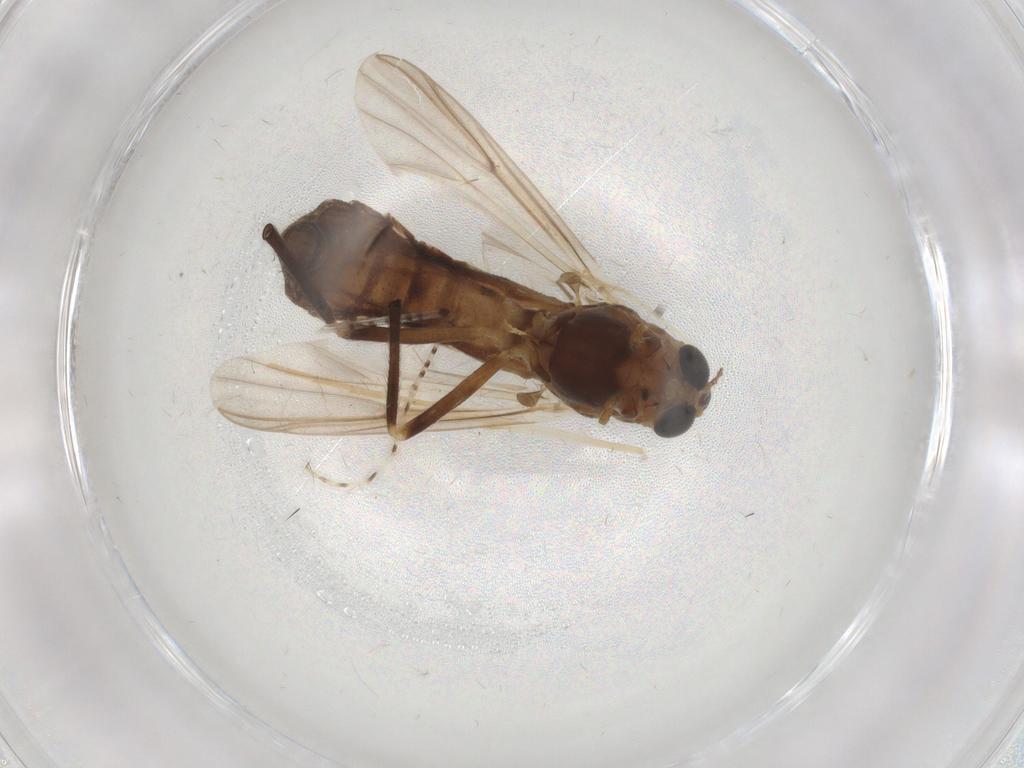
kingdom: Animalia
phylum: Arthropoda
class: Insecta
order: Diptera
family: Chironomidae
